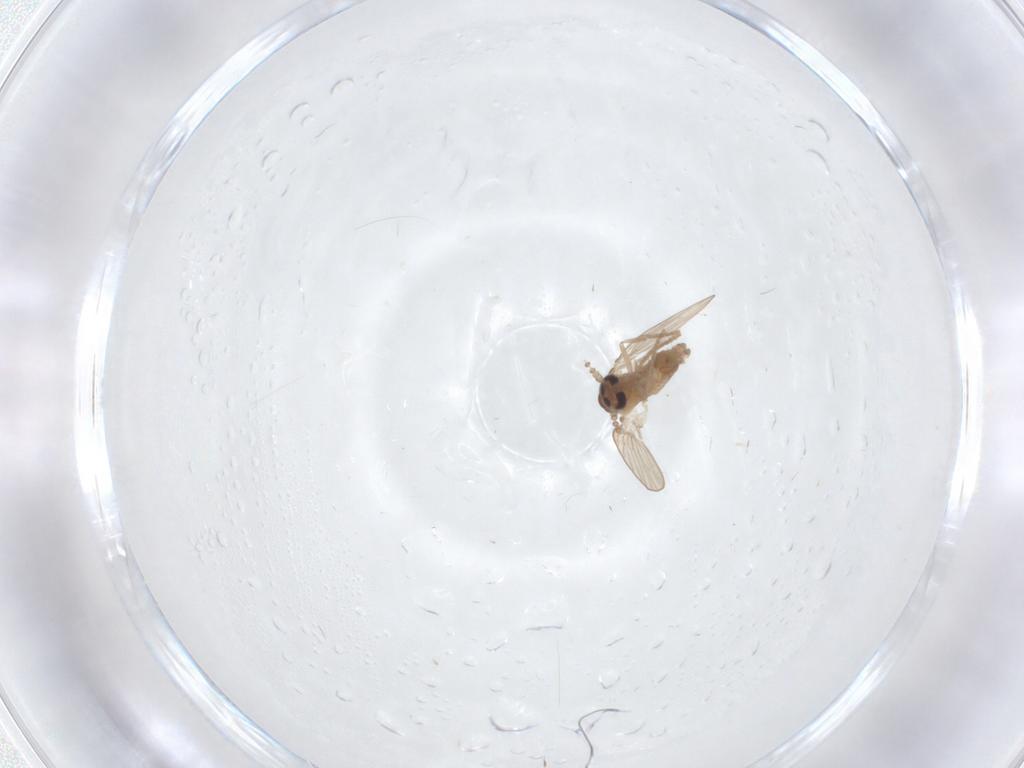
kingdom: Animalia
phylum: Arthropoda
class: Insecta
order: Diptera
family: Psychodidae
